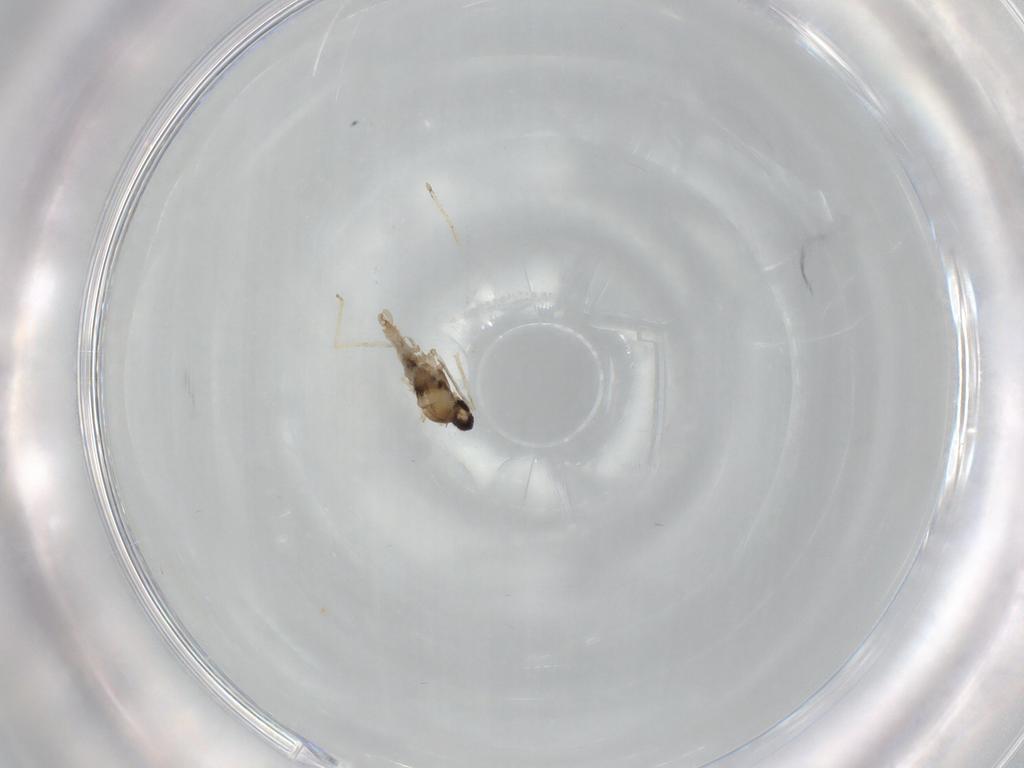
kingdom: Animalia
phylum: Arthropoda
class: Insecta
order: Diptera
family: Cecidomyiidae
